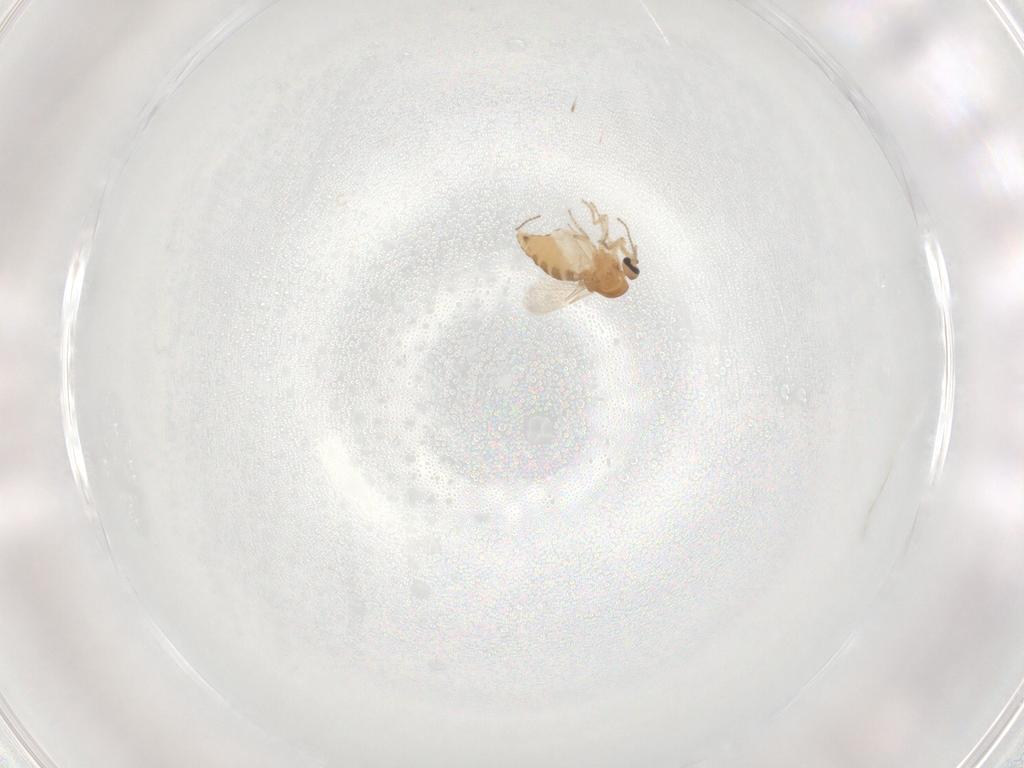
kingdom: Animalia
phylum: Arthropoda
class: Insecta
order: Diptera
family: Ceratopogonidae
